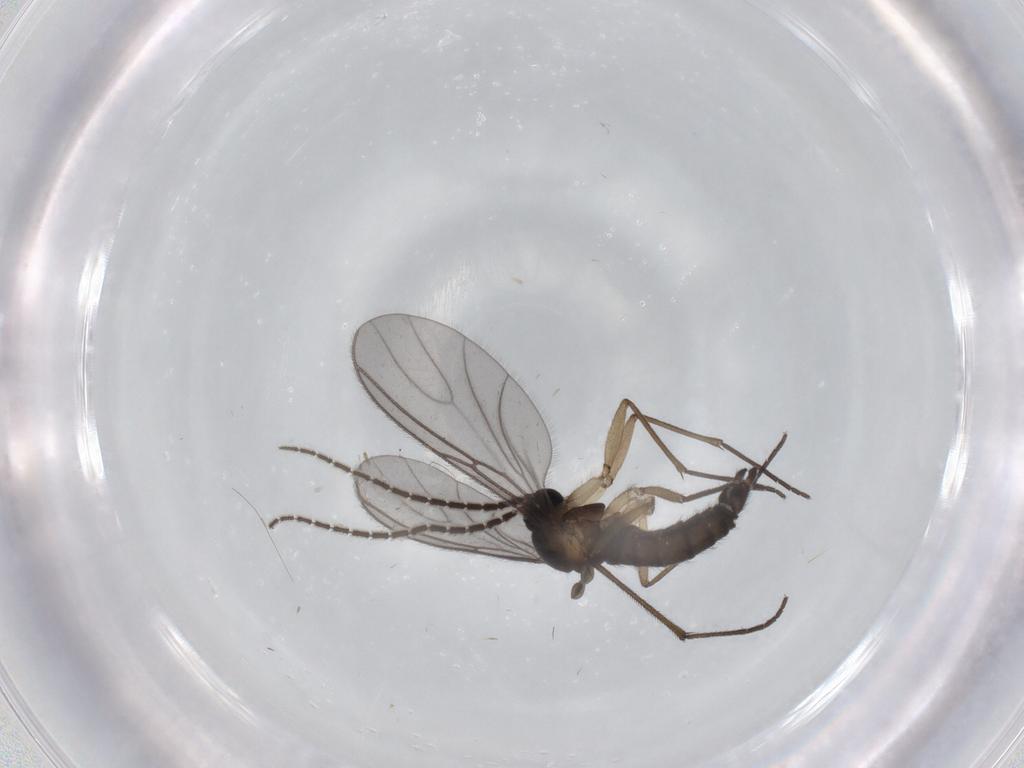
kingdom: Animalia
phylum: Arthropoda
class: Insecta
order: Diptera
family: Sciaridae
